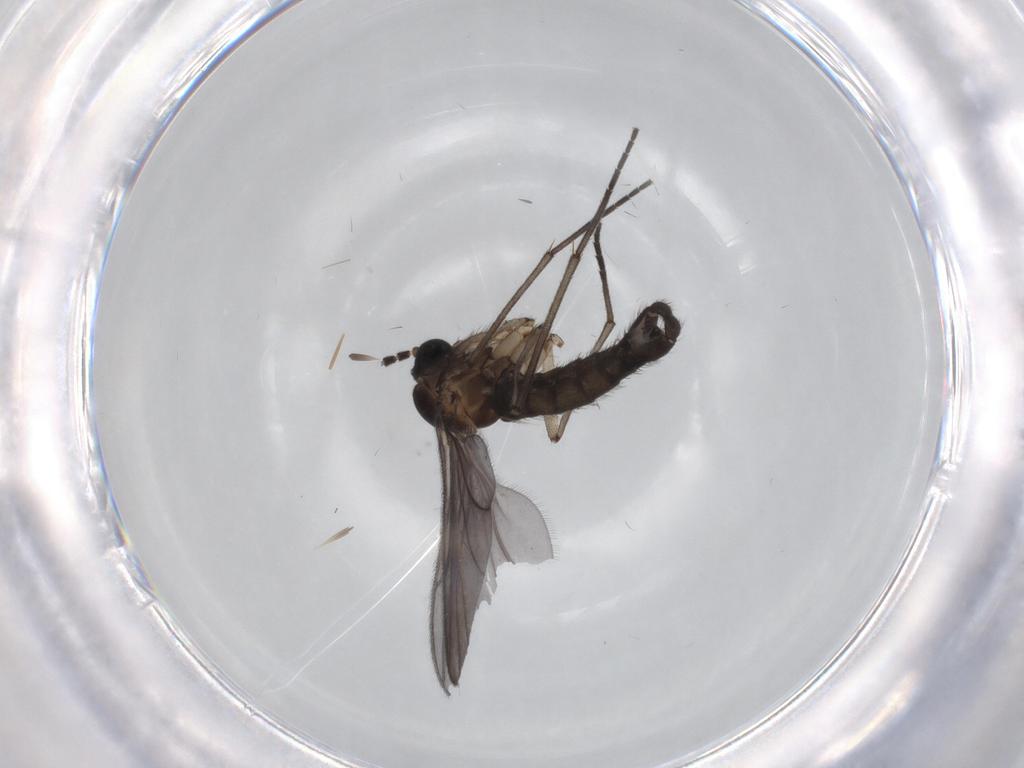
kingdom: Animalia
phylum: Arthropoda
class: Insecta
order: Diptera
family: Sciaridae
